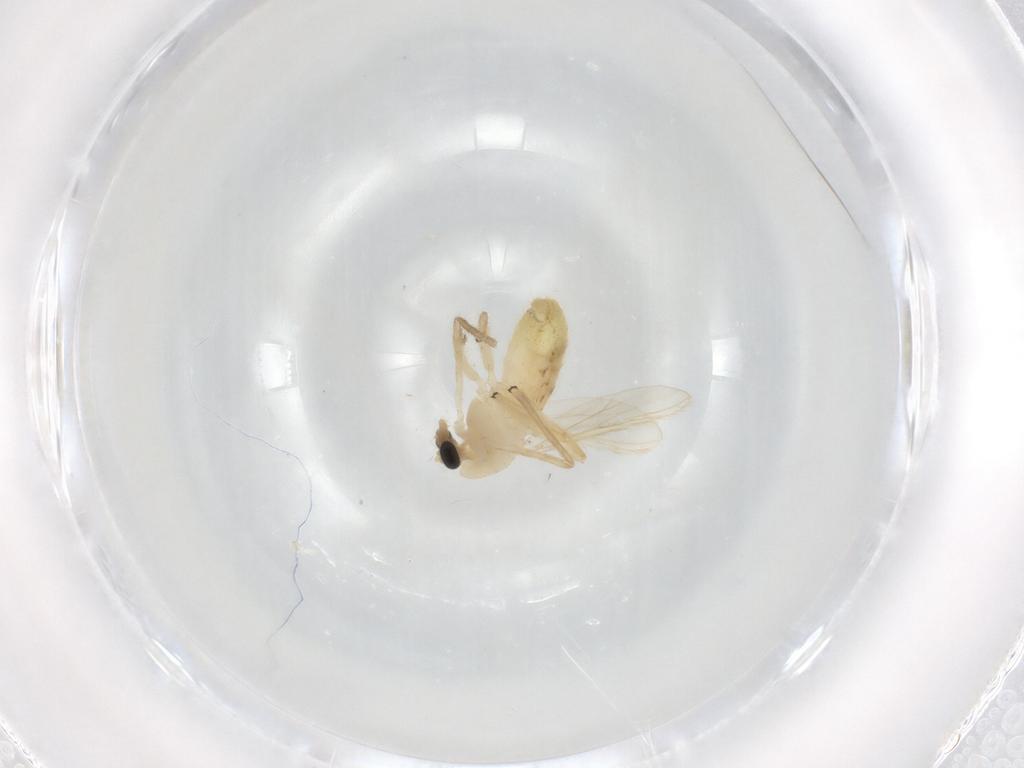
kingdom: Animalia
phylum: Arthropoda
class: Insecta
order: Diptera
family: Chironomidae
